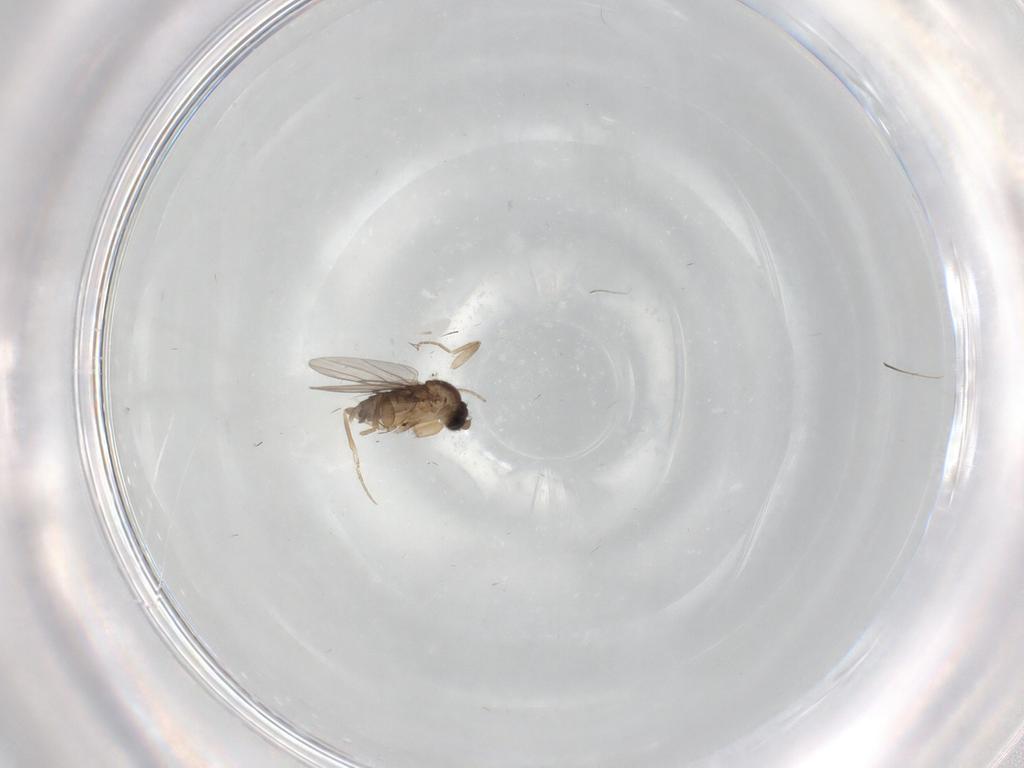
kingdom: Animalia
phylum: Arthropoda
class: Insecta
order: Diptera
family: Phoridae
